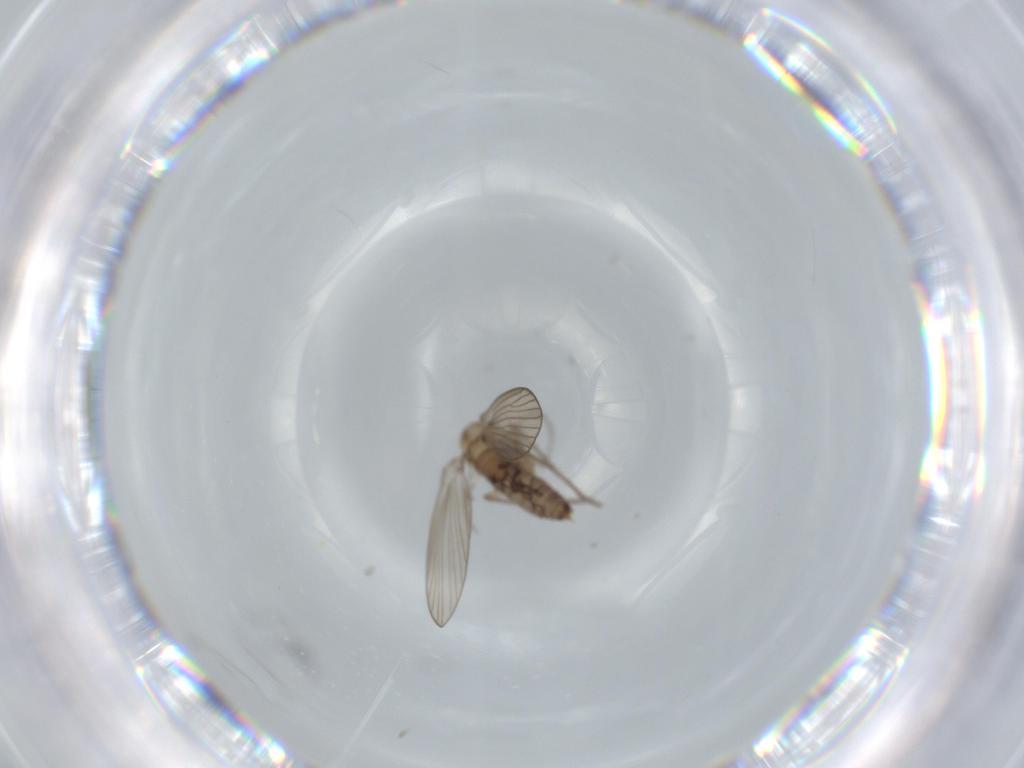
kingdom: Animalia
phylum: Arthropoda
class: Insecta
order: Diptera
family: Psychodidae
